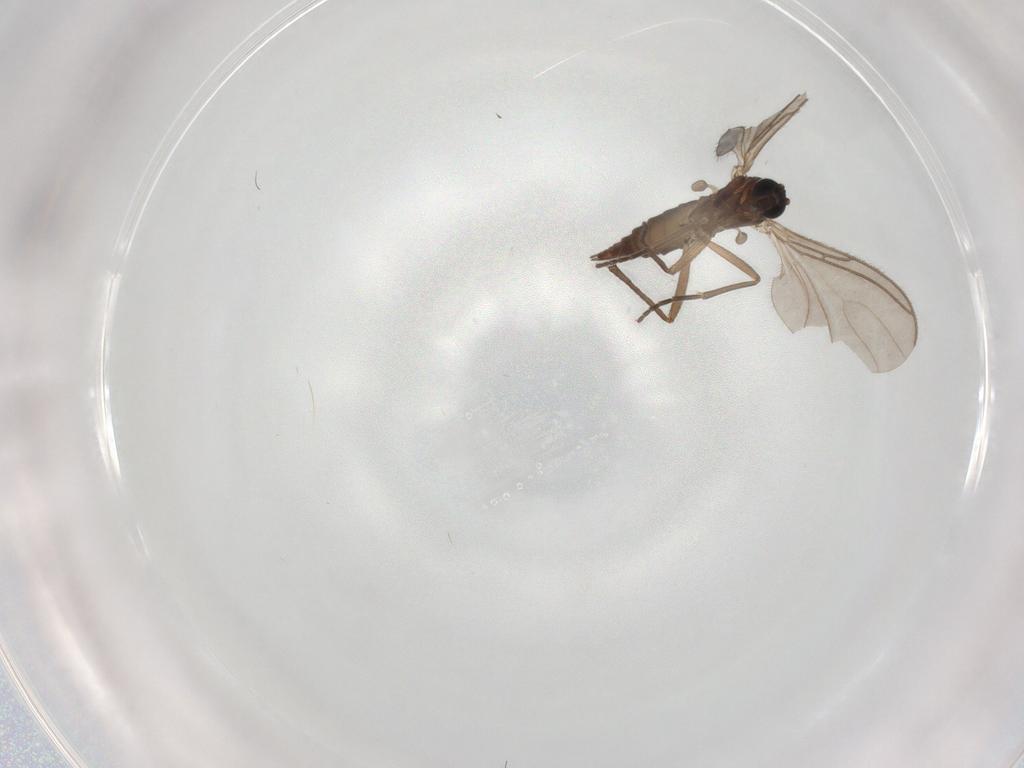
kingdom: Animalia
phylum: Arthropoda
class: Insecta
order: Diptera
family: Sciaridae
